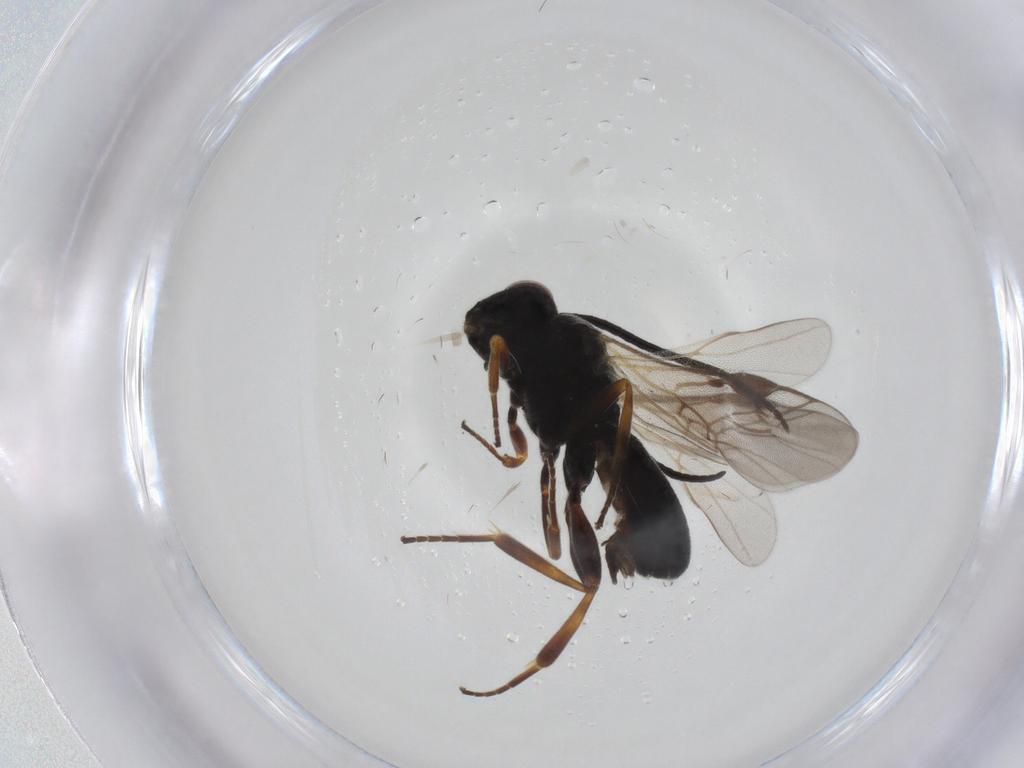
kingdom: Animalia
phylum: Arthropoda
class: Insecta
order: Hymenoptera
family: Braconidae
